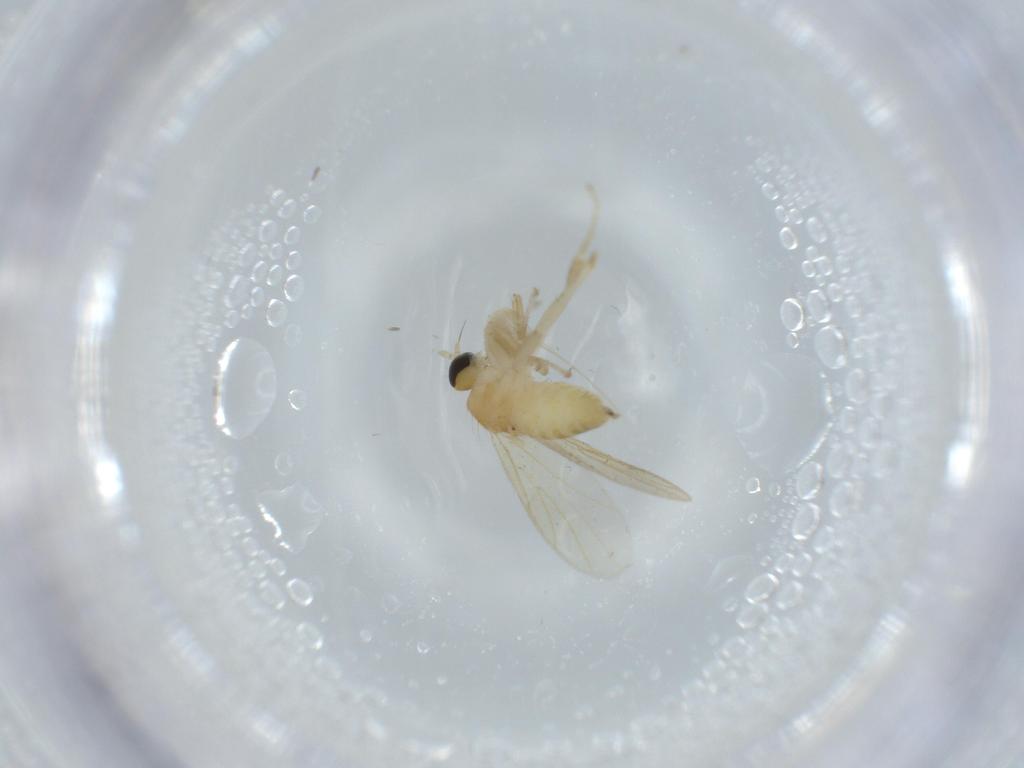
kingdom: Animalia
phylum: Arthropoda
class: Insecta
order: Diptera
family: Hybotidae
